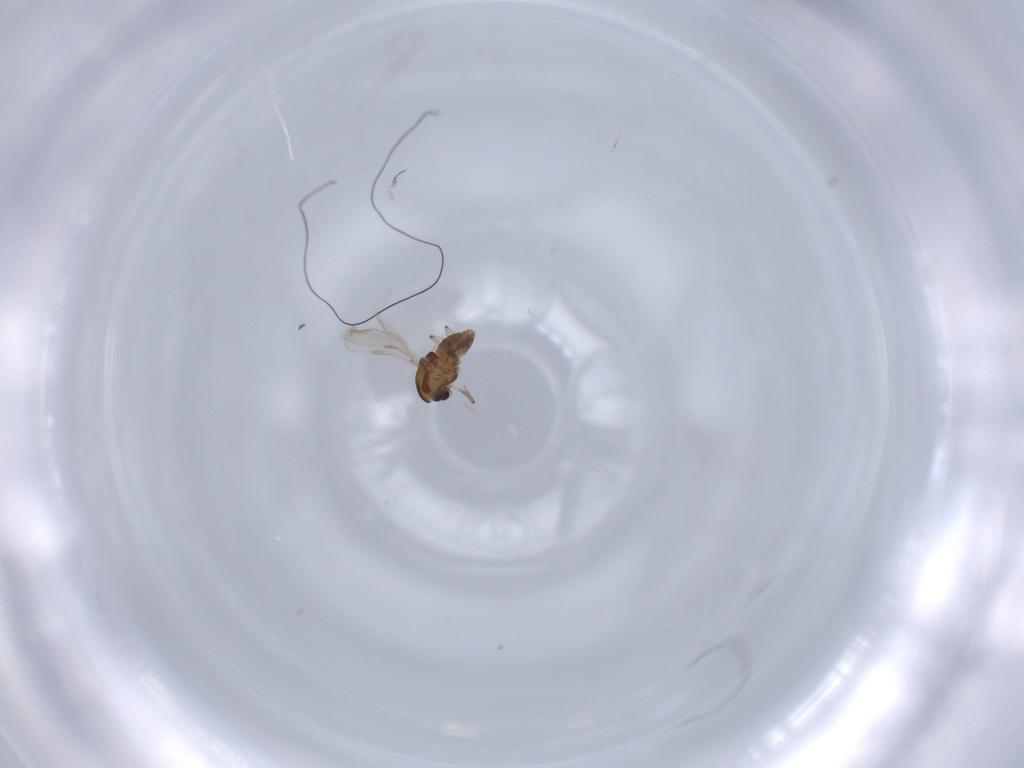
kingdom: Animalia
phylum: Arthropoda
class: Insecta
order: Diptera
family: Chironomidae
